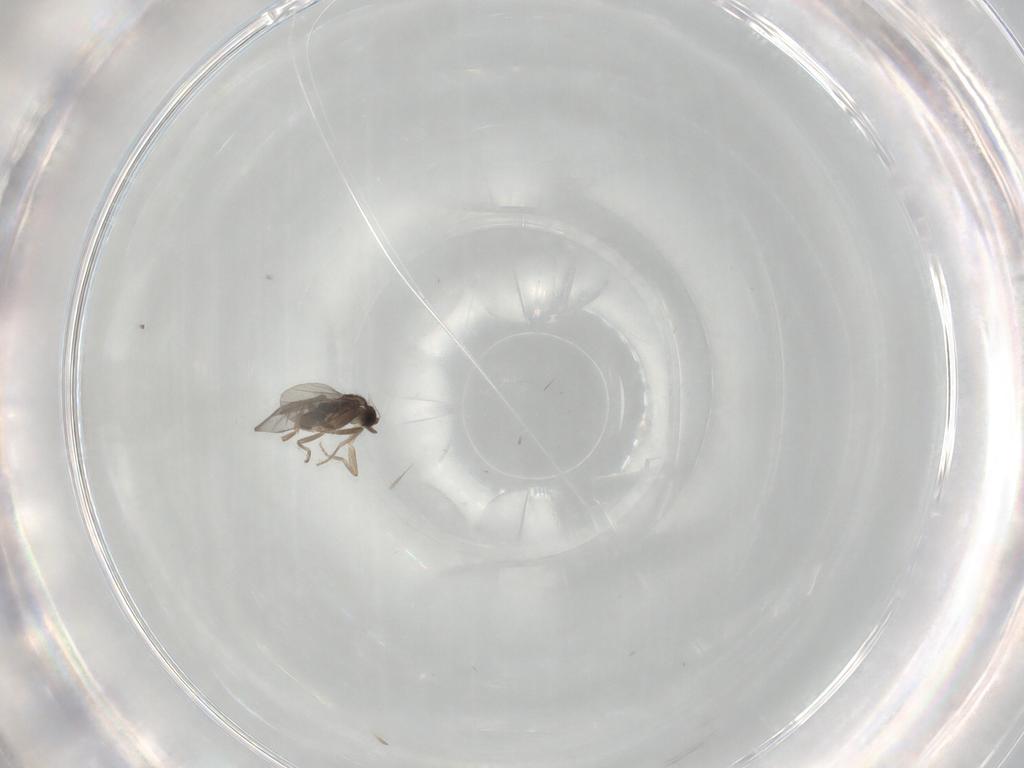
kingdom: Animalia
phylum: Arthropoda
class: Insecta
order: Diptera
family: Cecidomyiidae
